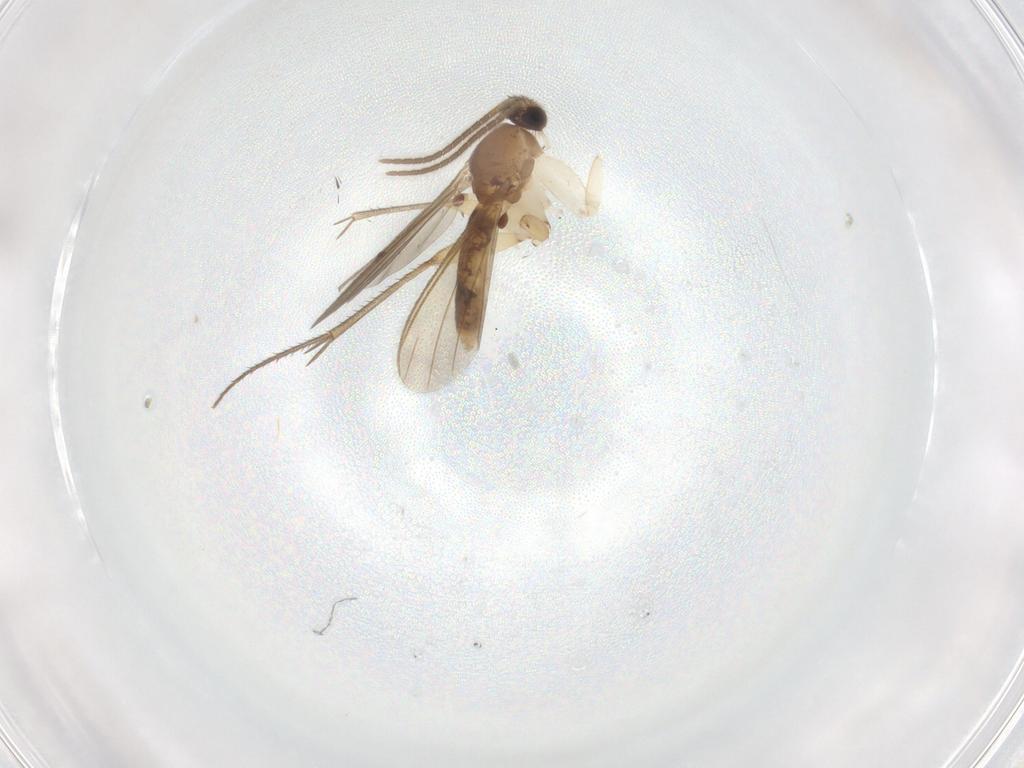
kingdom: Animalia
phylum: Arthropoda
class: Insecta
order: Diptera
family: Mycetophilidae
